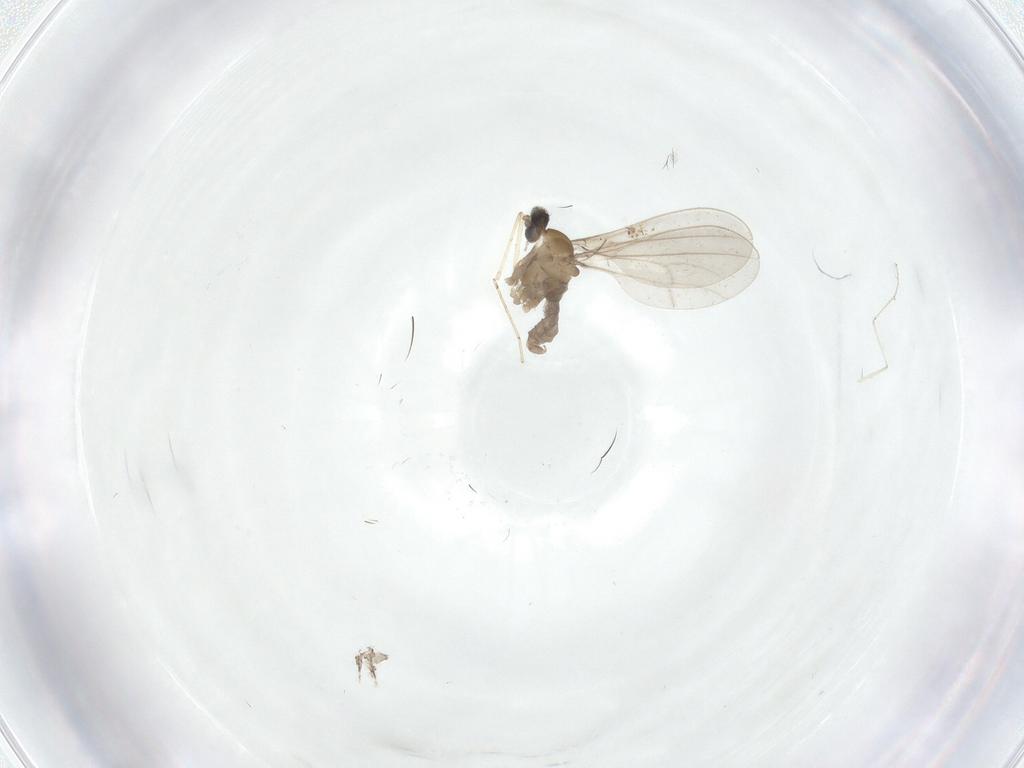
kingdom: Animalia
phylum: Arthropoda
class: Insecta
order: Diptera
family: Cecidomyiidae
